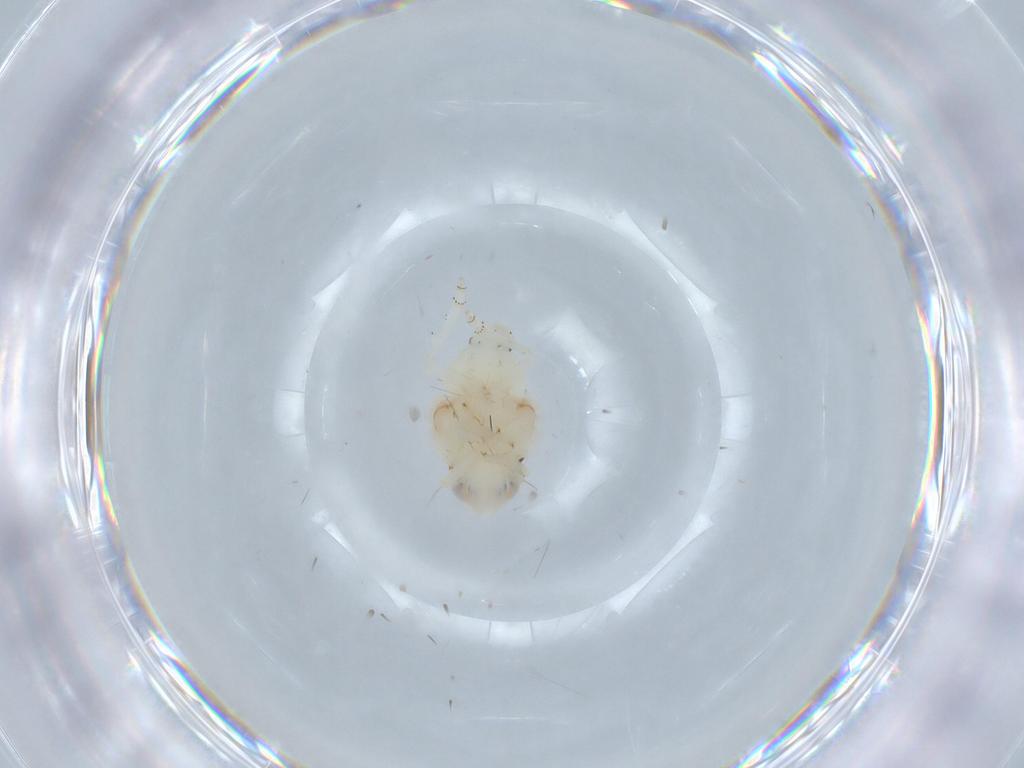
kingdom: Animalia
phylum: Arthropoda
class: Insecta
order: Hemiptera
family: Nogodinidae
